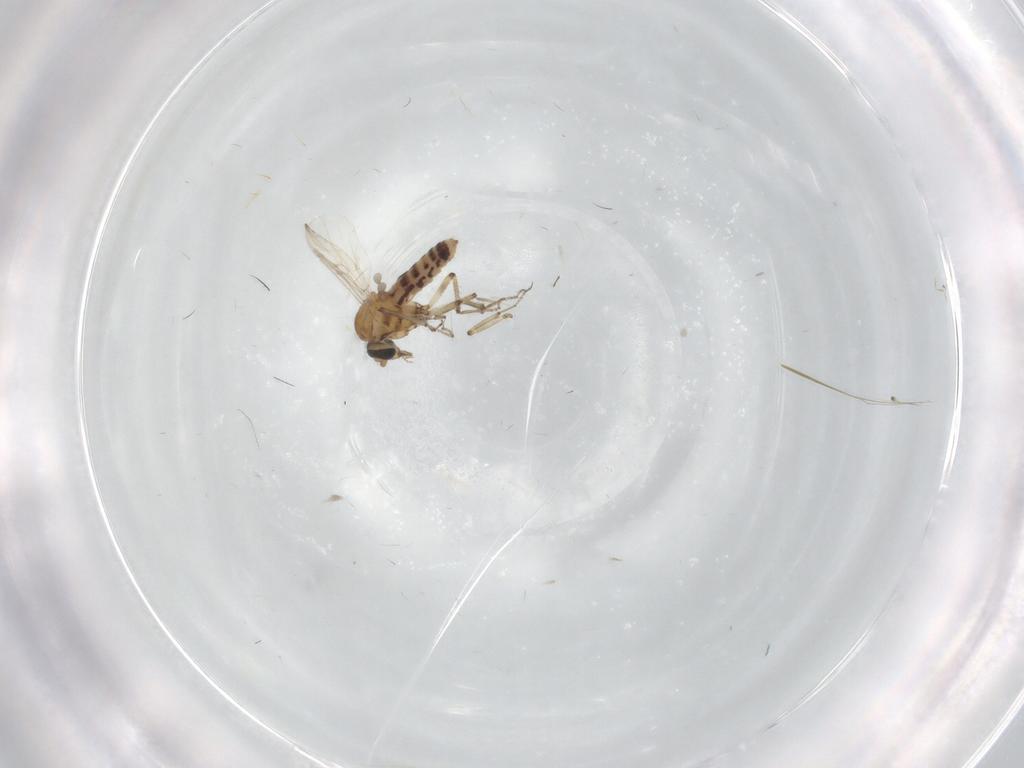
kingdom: Animalia
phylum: Arthropoda
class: Insecta
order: Diptera
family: Ceratopogonidae
